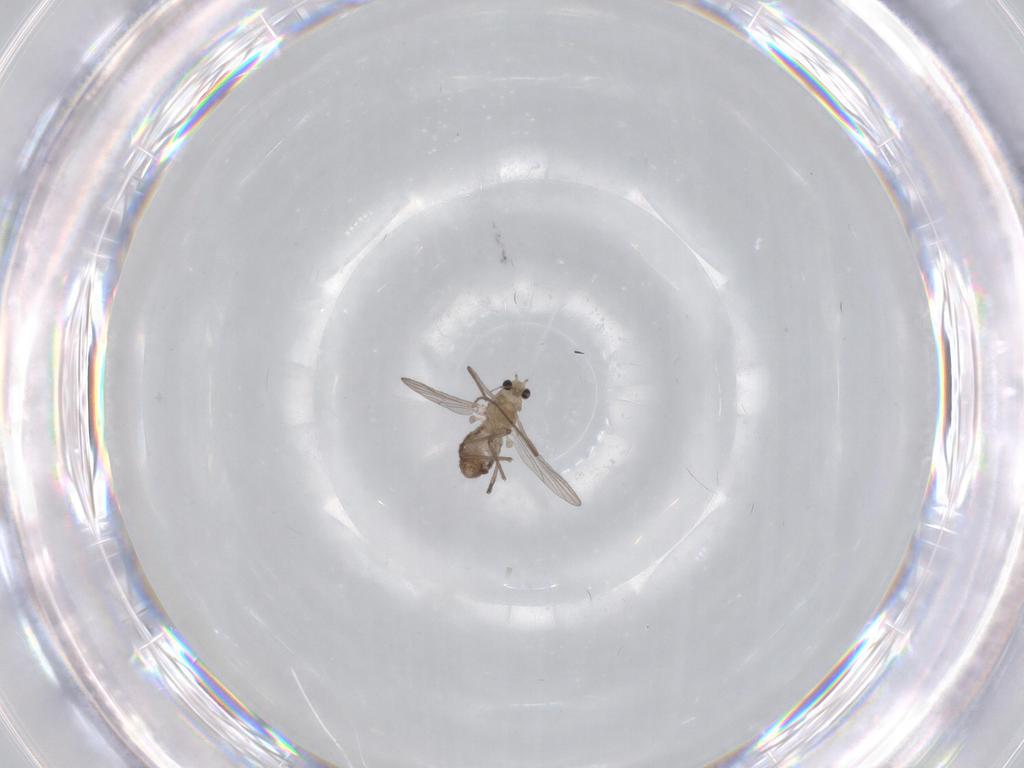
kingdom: Animalia
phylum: Arthropoda
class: Insecta
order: Diptera
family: Chironomidae
